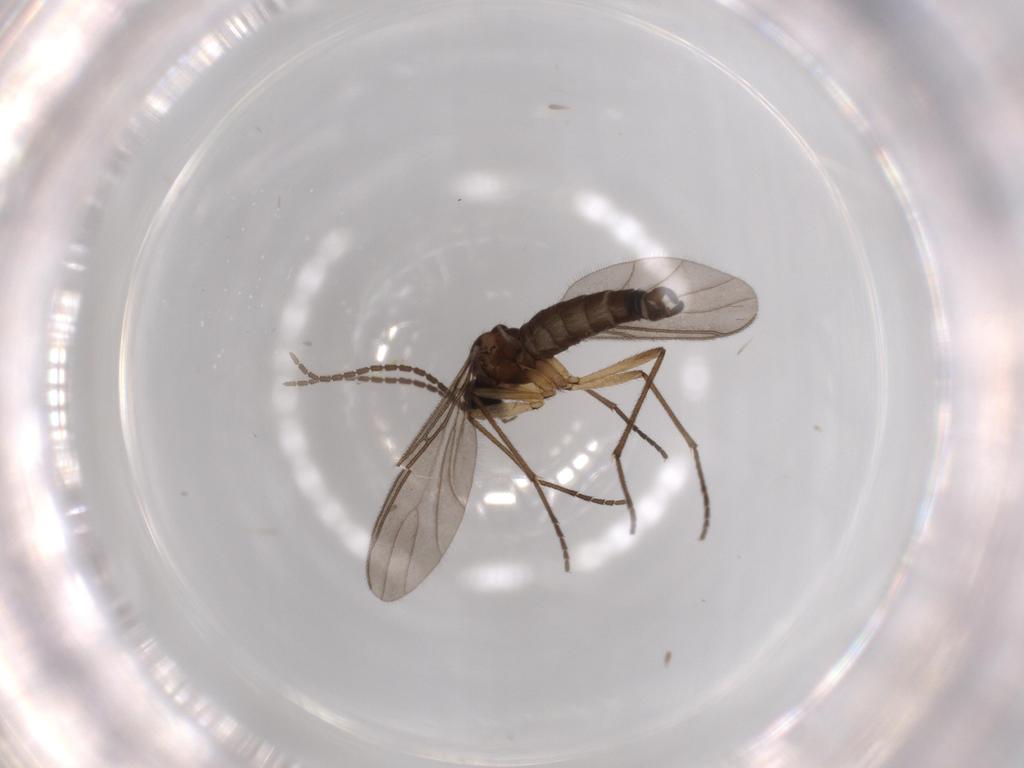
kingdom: Animalia
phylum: Arthropoda
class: Insecta
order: Diptera
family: Sciaridae
